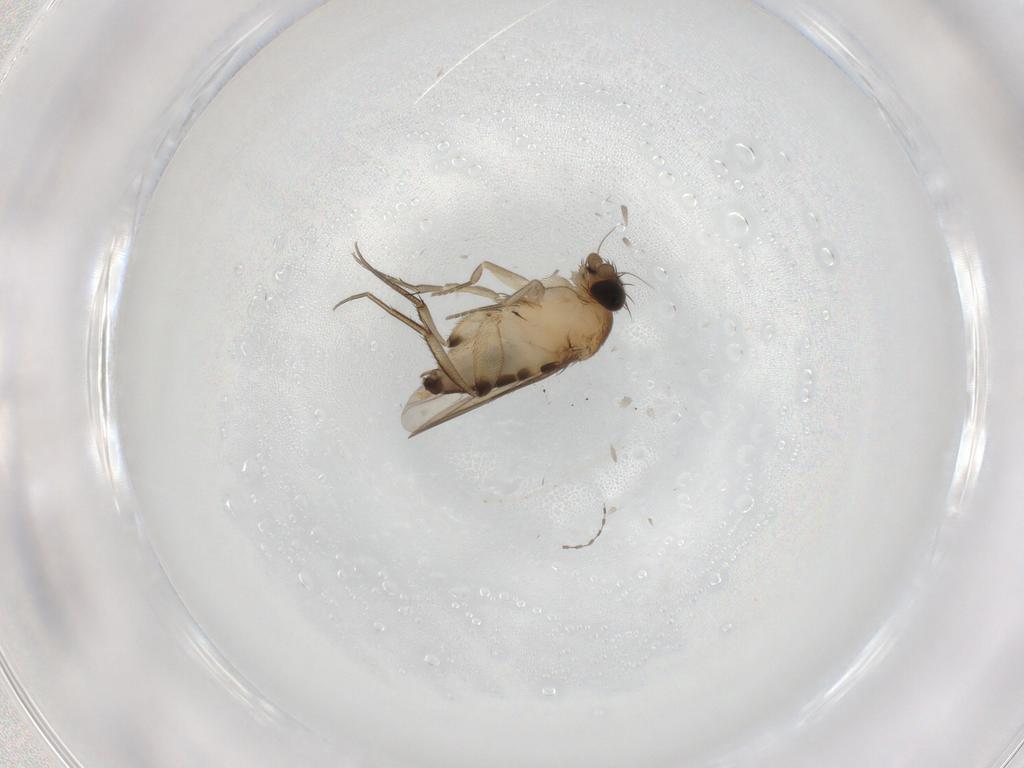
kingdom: Animalia
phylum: Arthropoda
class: Insecta
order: Diptera
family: Phoridae
